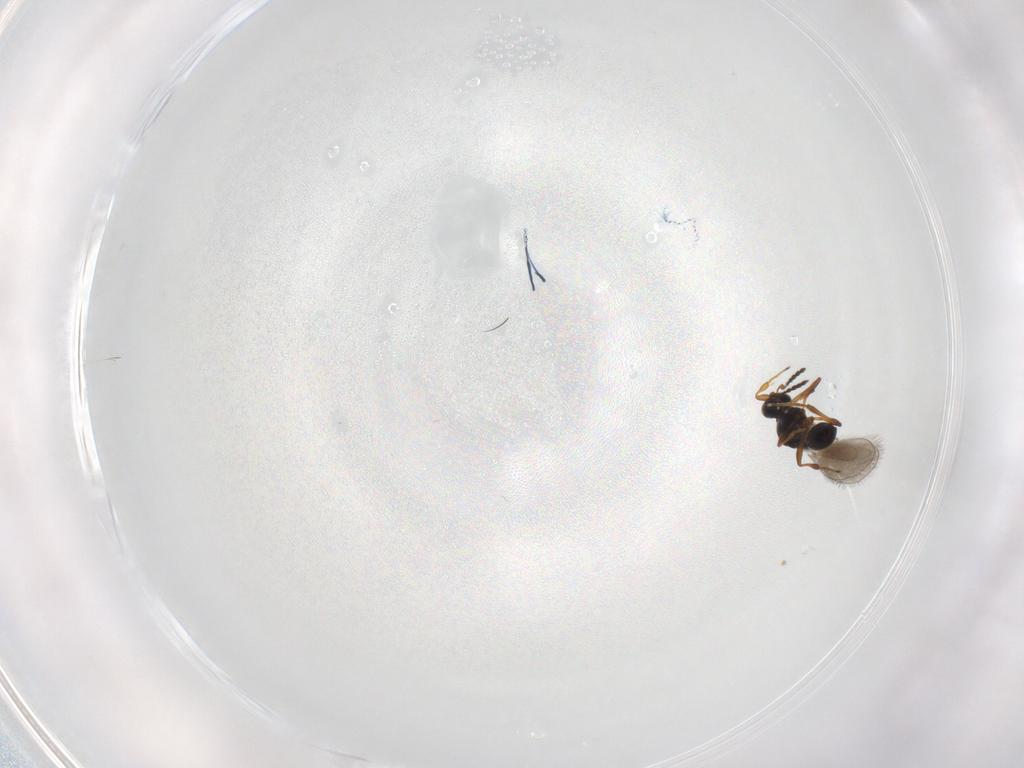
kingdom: Animalia
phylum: Arthropoda
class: Insecta
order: Hymenoptera
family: Platygastridae
